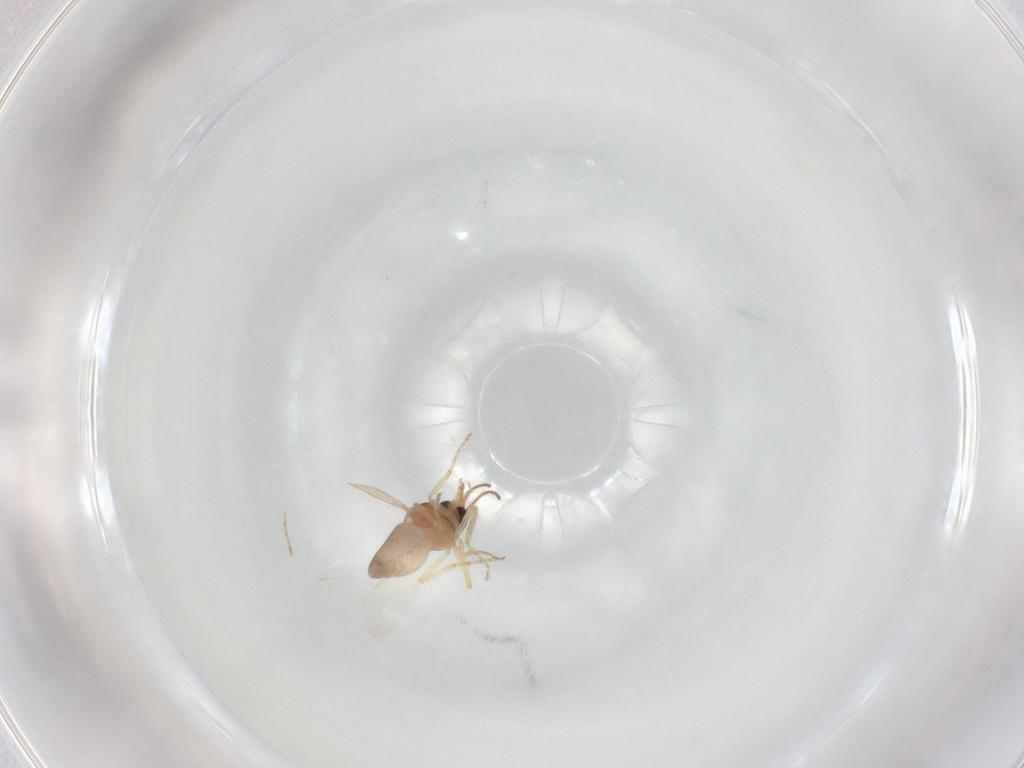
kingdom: Animalia
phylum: Arthropoda
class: Insecta
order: Diptera
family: Ceratopogonidae
